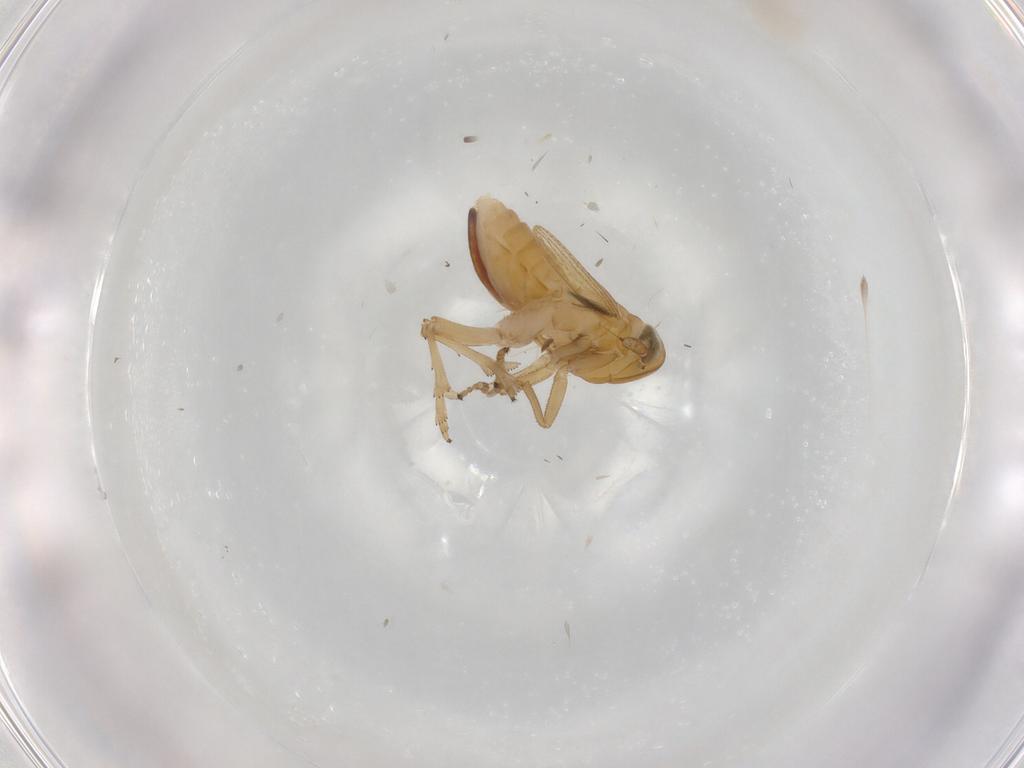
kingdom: Animalia
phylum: Arthropoda
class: Insecta
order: Hemiptera
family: Delphacidae
